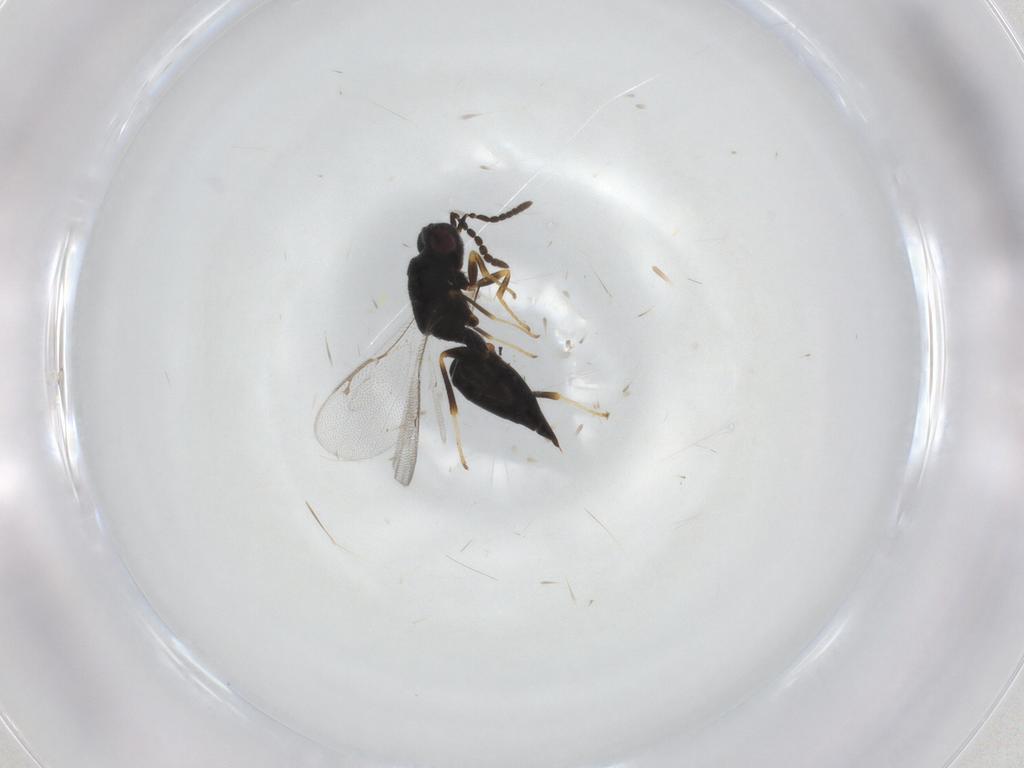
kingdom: Animalia
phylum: Arthropoda
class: Insecta
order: Hymenoptera
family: Eurytomidae
